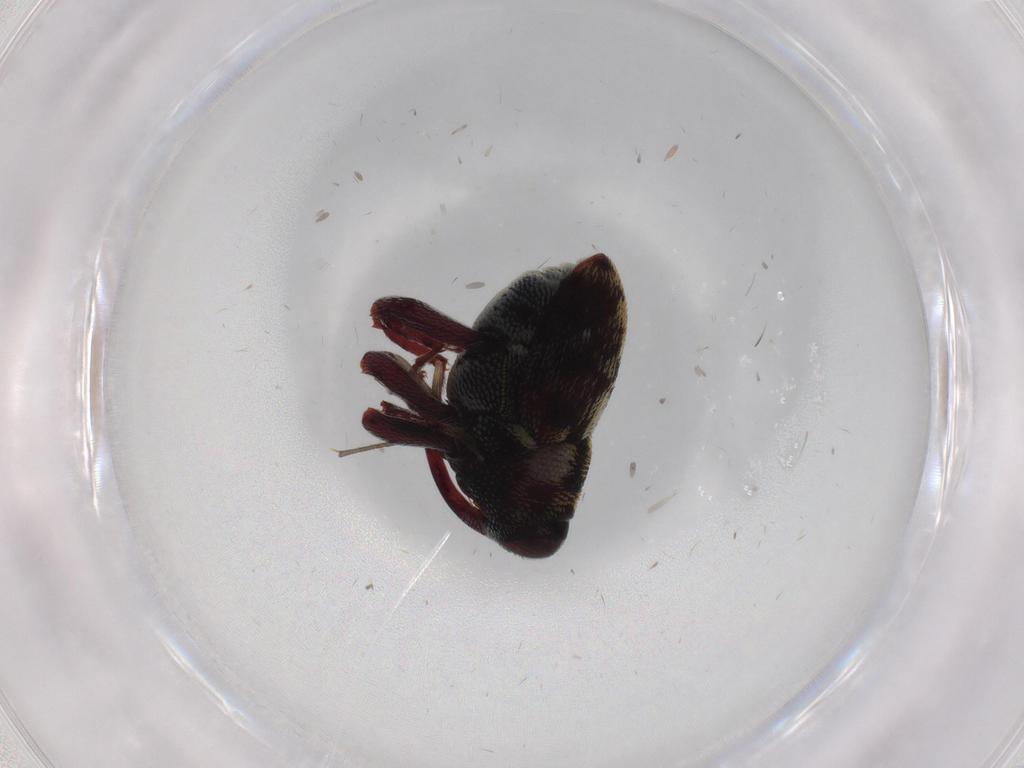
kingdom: Animalia
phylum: Arthropoda
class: Insecta
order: Coleoptera
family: Chrysomelidae
